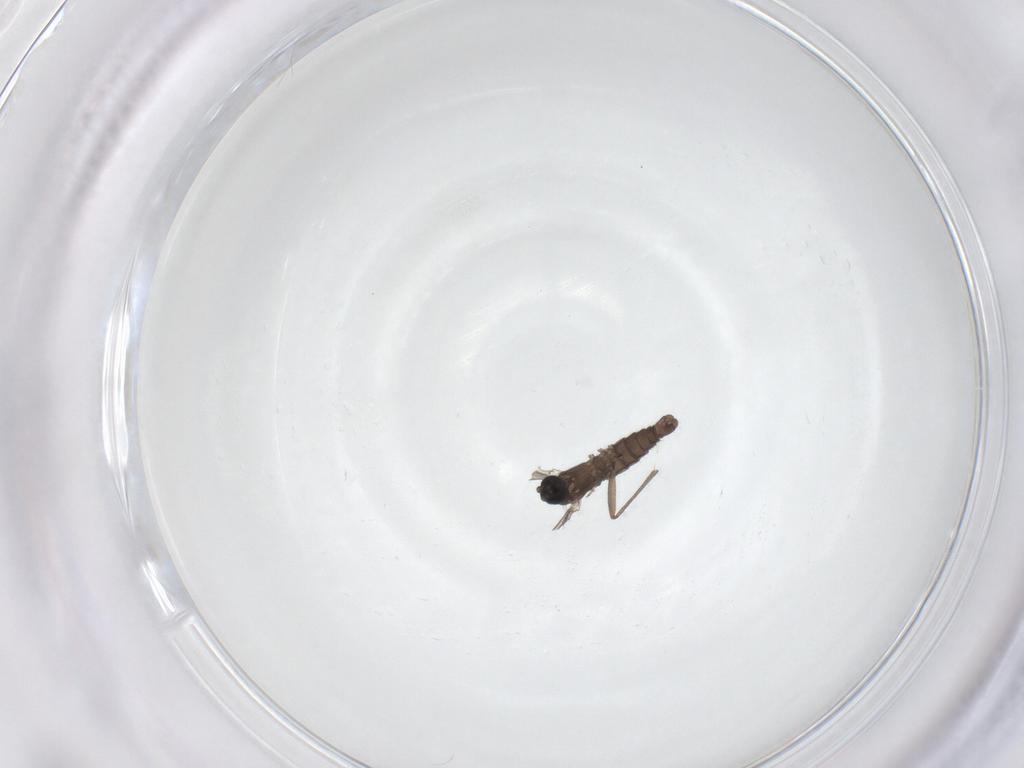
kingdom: Animalia
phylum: Arthropoda
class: Insecta
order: Diptera
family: Sciaridae
